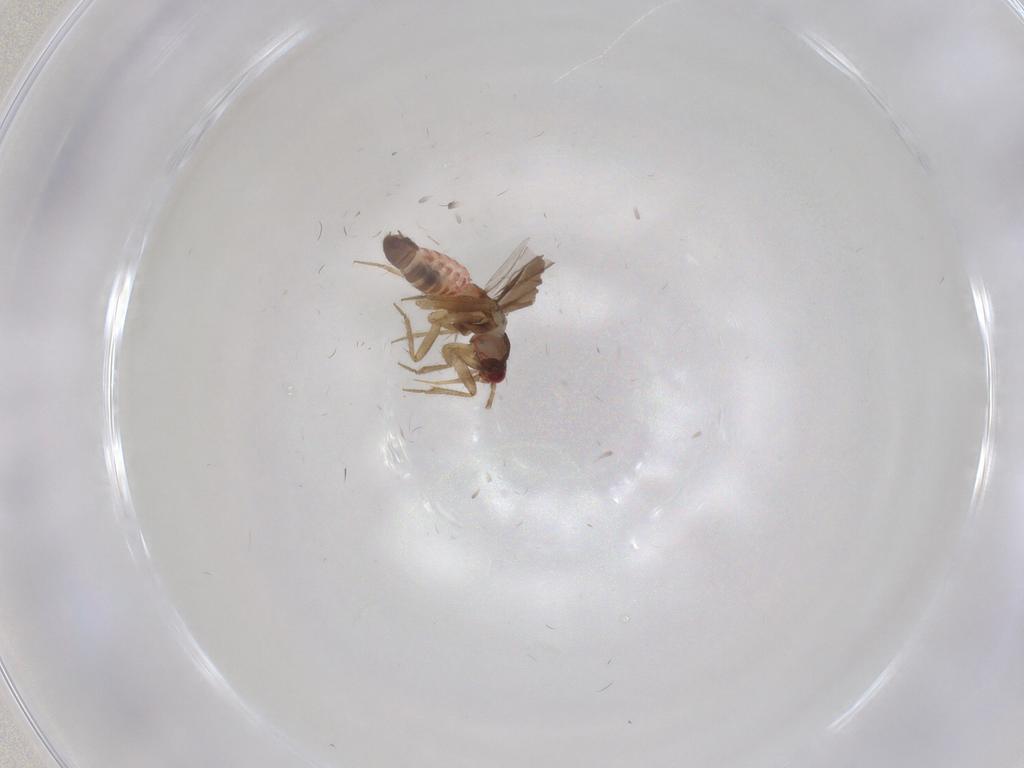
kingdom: Animalia
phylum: Arthropoda
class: Insecta
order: Hemiptera
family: Ceratocombidae
